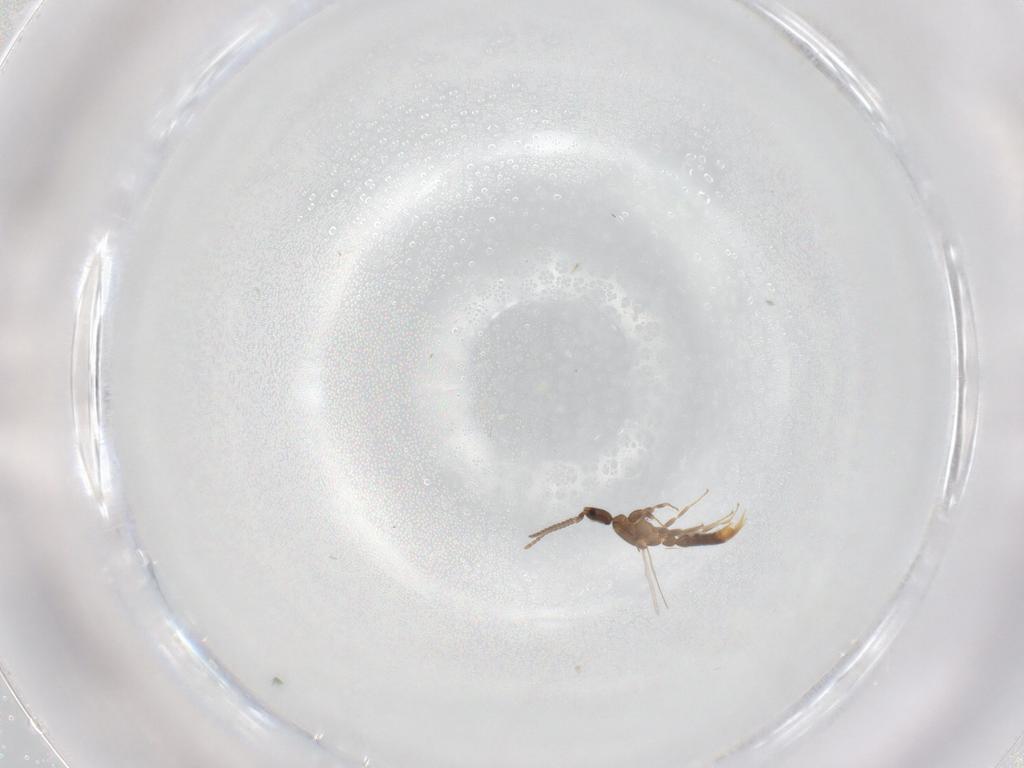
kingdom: Animalia
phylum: Arthropoda
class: Insecta
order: Hymenoptera
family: Formicidae
